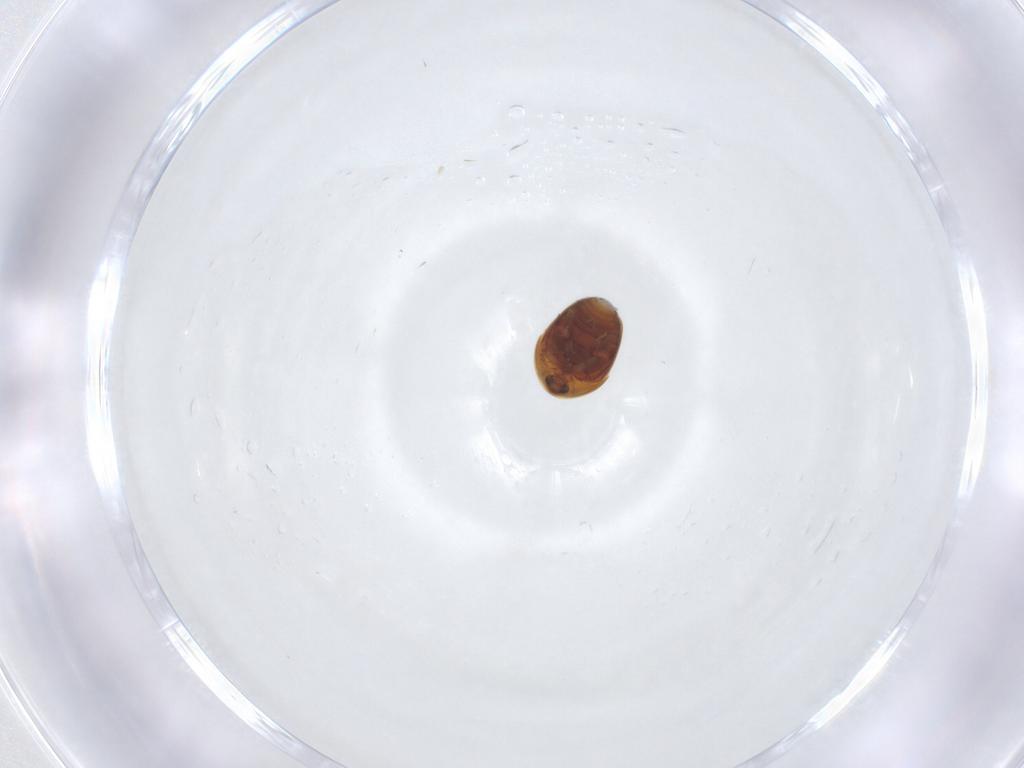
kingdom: Animalia
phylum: Arthropoda
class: Insecta
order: Coleoptera
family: Corylophidae
